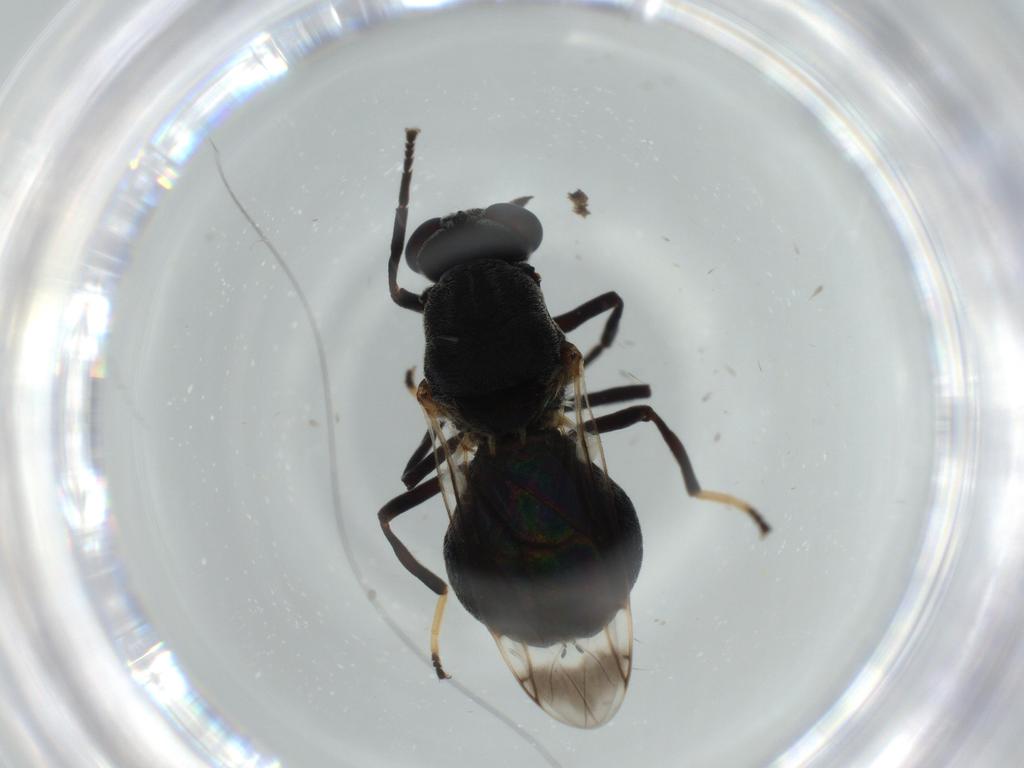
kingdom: Animalia
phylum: Arthropoda
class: Insecta
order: Diptera
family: Stratiomyidae
